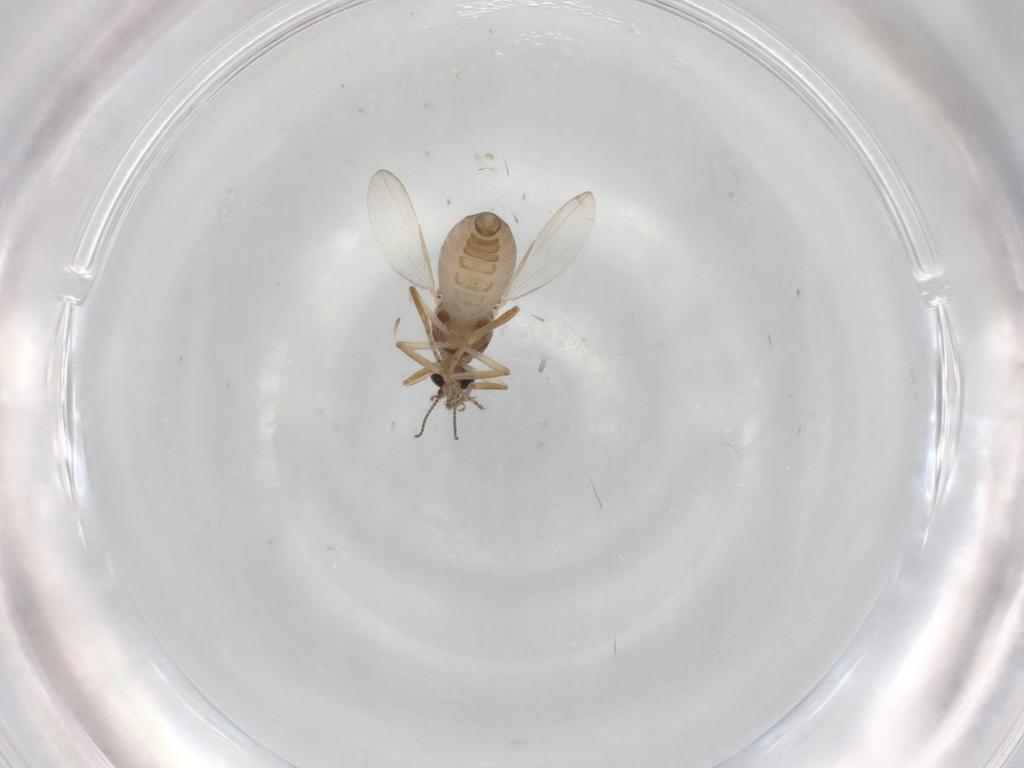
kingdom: Animalia
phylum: Arthropoda
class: Insecta
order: Diptera
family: Ceratopogonidae
